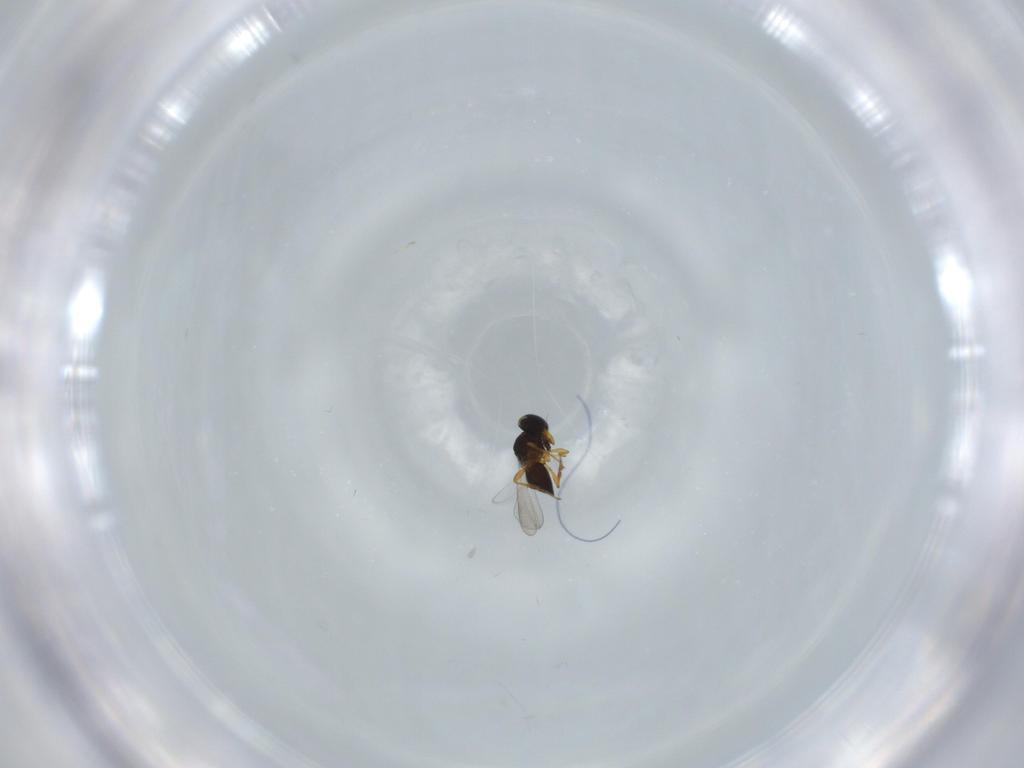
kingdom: Animalia
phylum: Arthropoda
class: Insecta
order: Hymenoptera
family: Platygastridae
